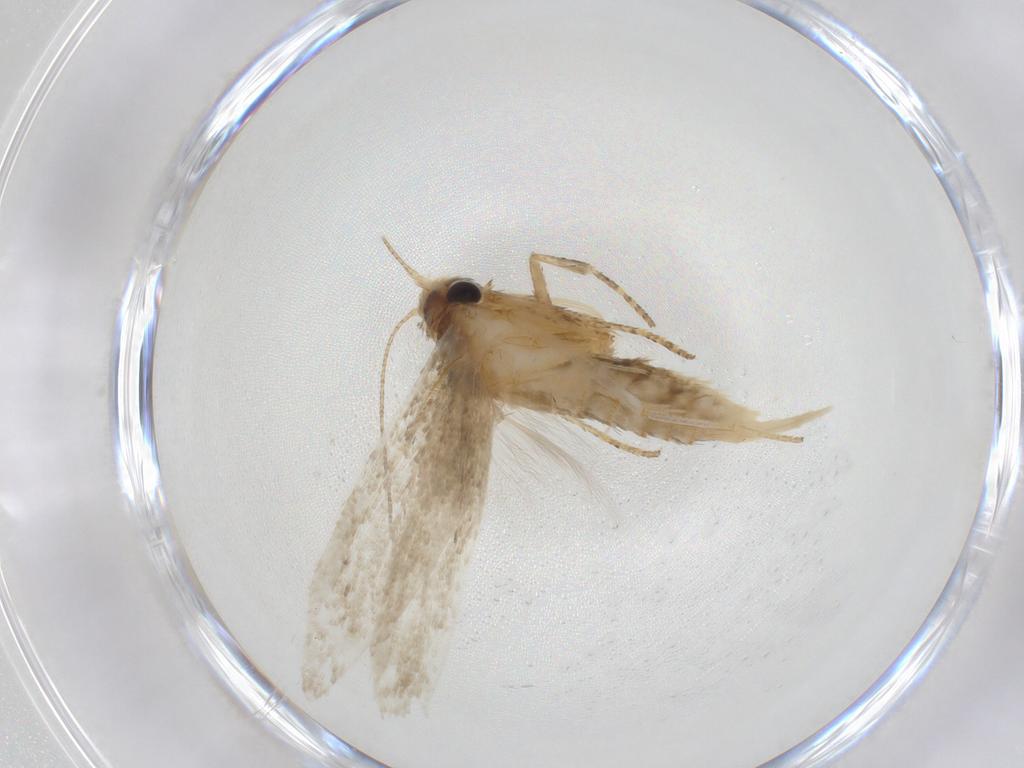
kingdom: Animalia
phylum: Arthropoda
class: Insecta
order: Lepidoptera
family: Blastobasidae
